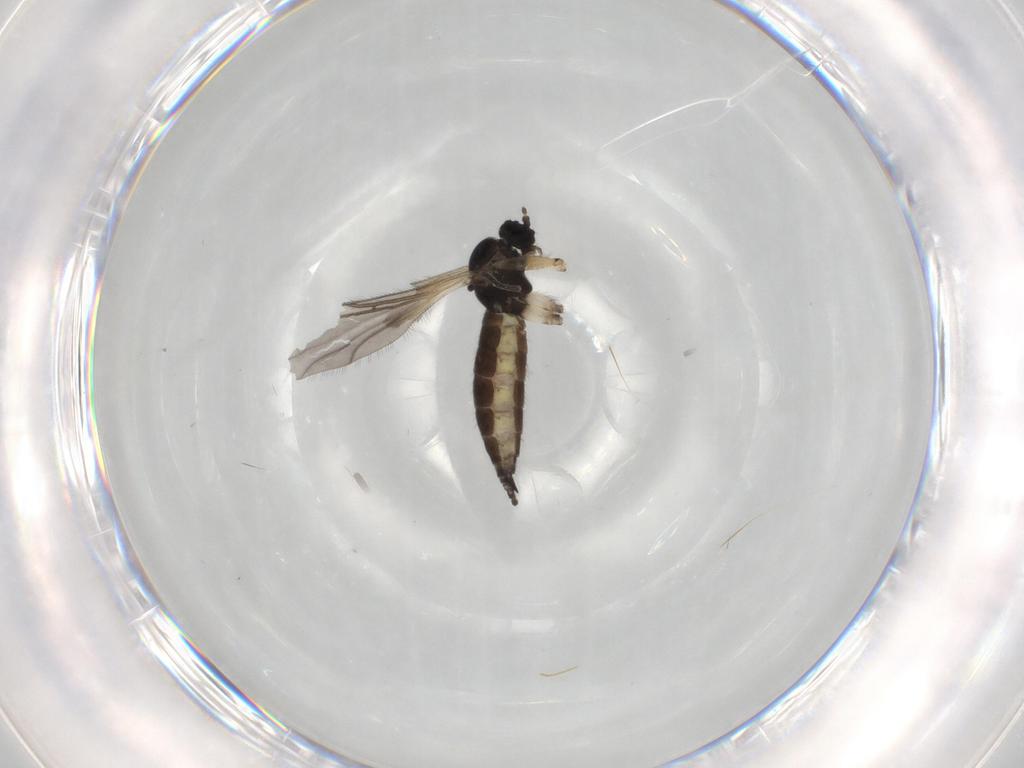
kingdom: Animalia
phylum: Arthropoda
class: Insecta
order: Diptera
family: Sciaridae
